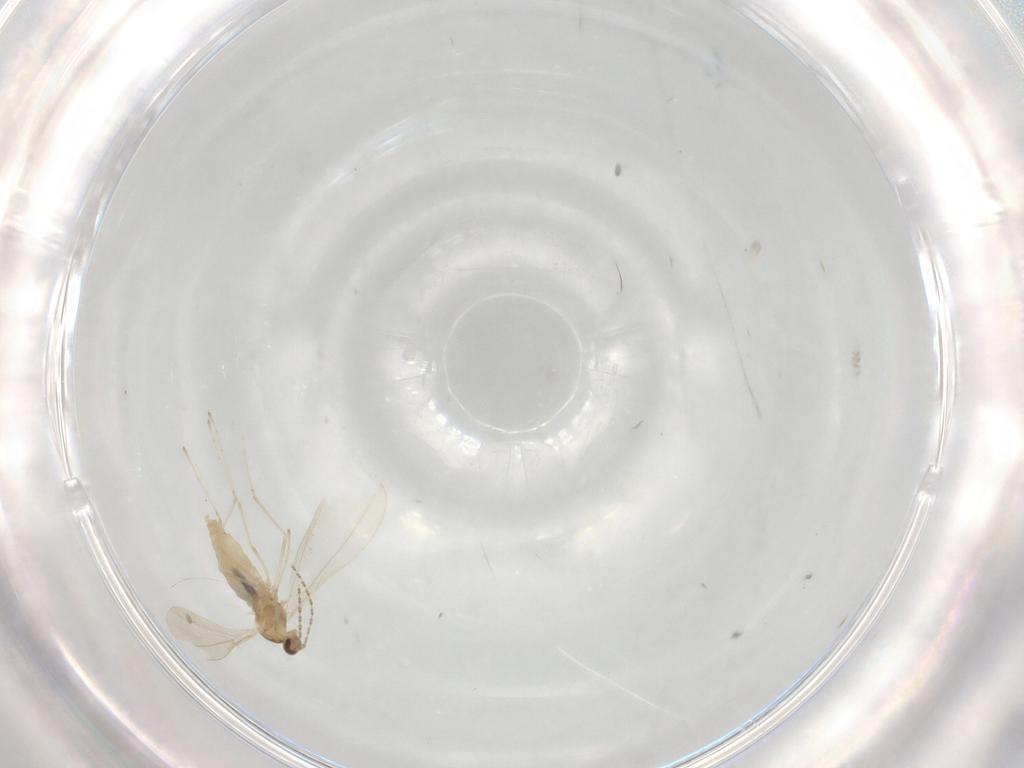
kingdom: Animalia
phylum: Arthropoda
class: Insecta
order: Diptera
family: Cecidomyiidae
